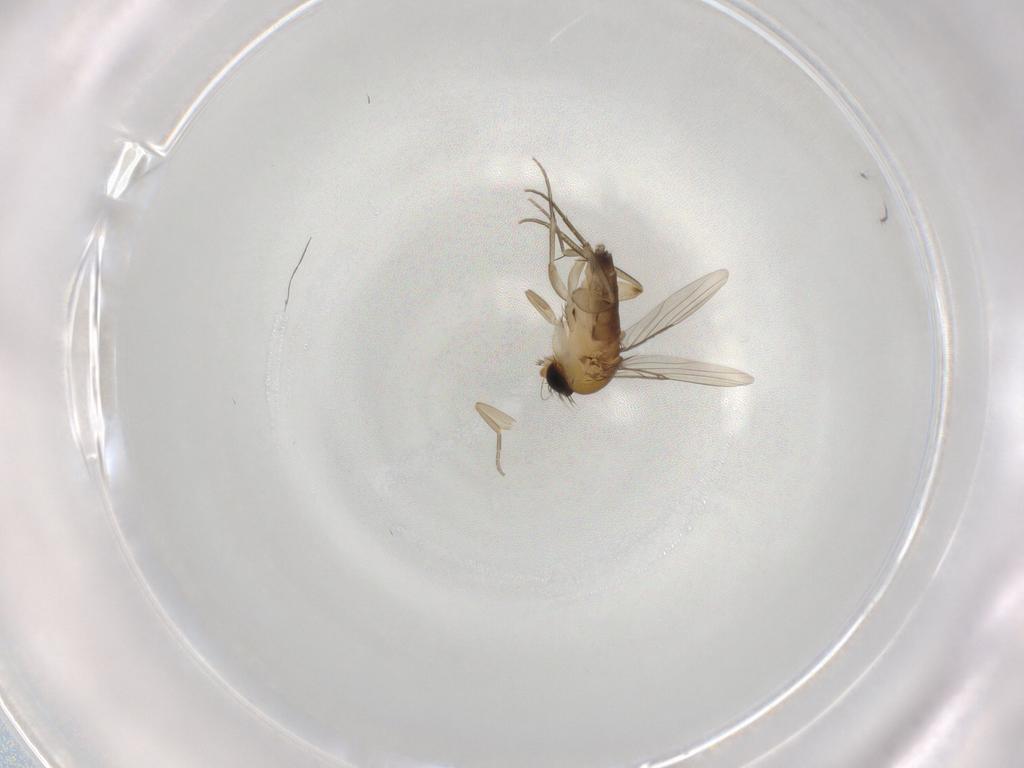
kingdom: Animalia
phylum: Arthropoda
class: Insecta
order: Diptera
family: Phoridae
